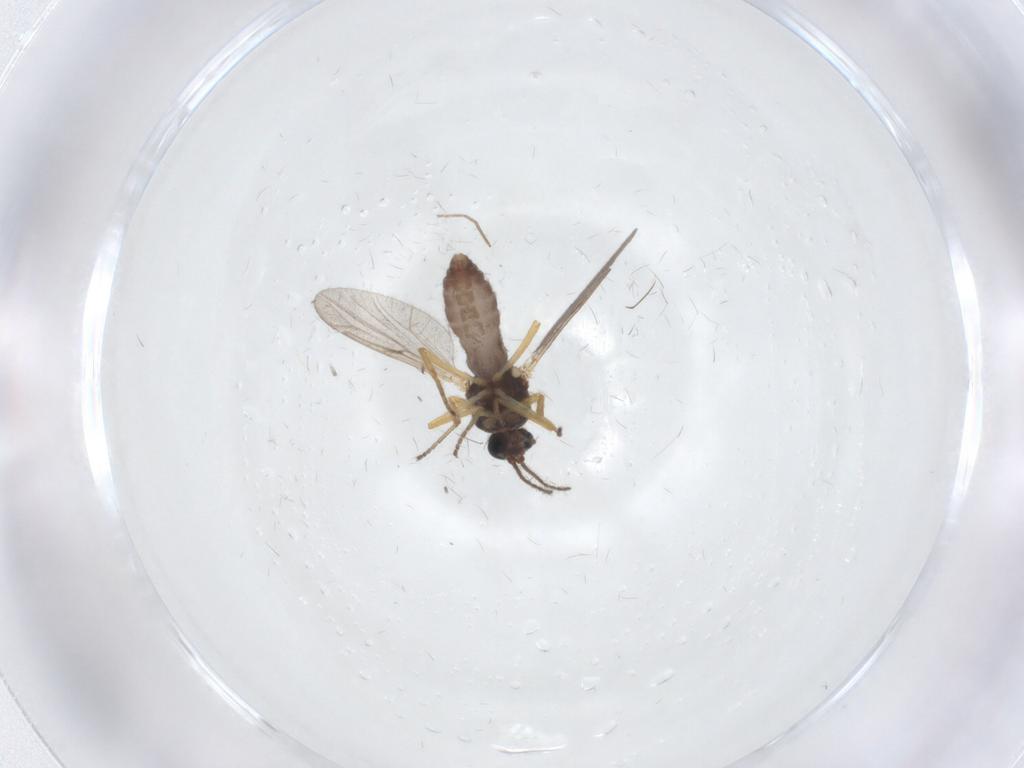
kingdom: Animalia
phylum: Arthropoda
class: Insecta
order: Diptera
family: Ceratopogonidae
